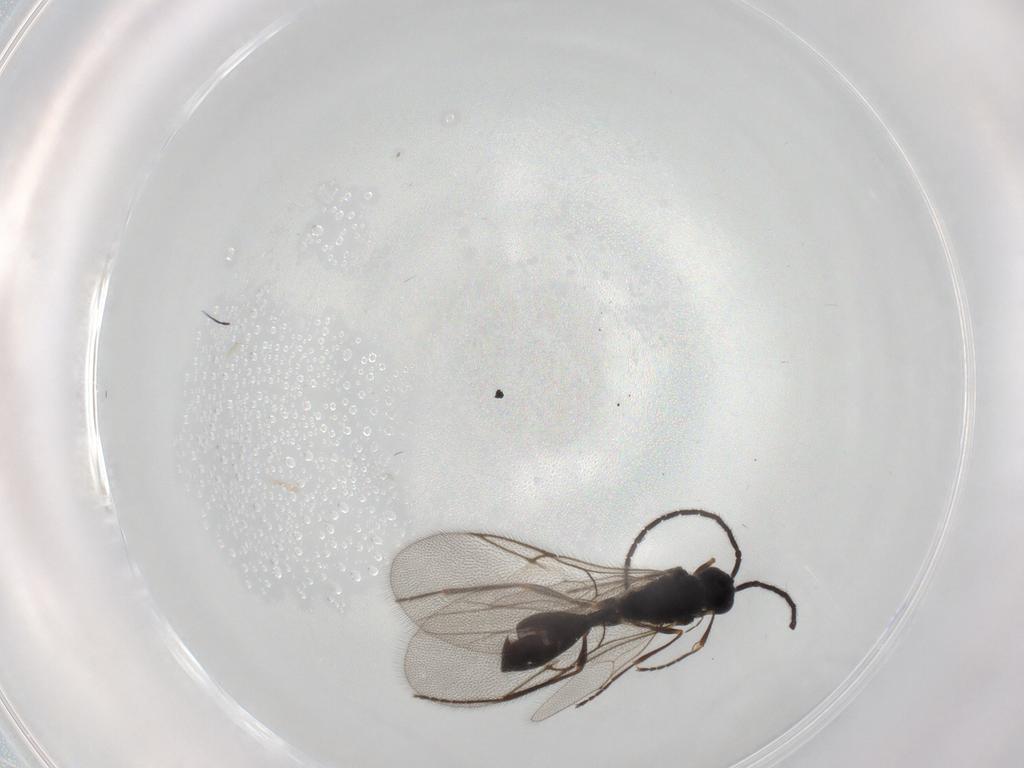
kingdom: Animalia
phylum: Arthropoda
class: Insecta
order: Hymenoptera
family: Diapriidae
